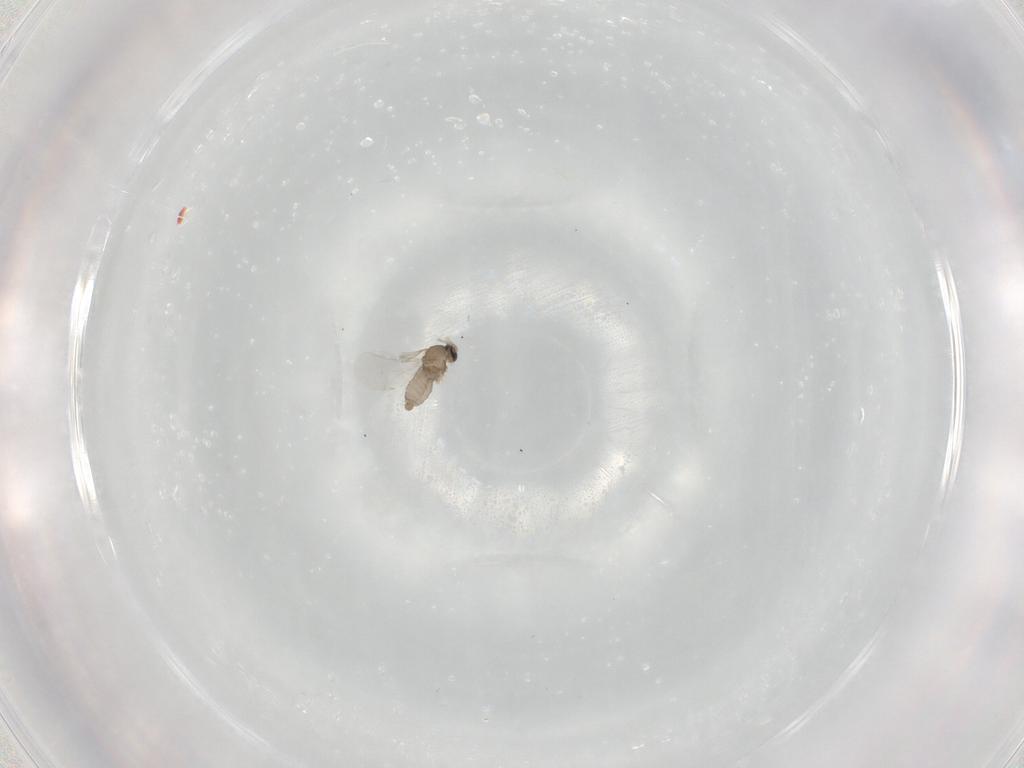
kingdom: Animalia
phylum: Arthropoda
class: Insecta
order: Diptera
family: Cecidomyiidae
